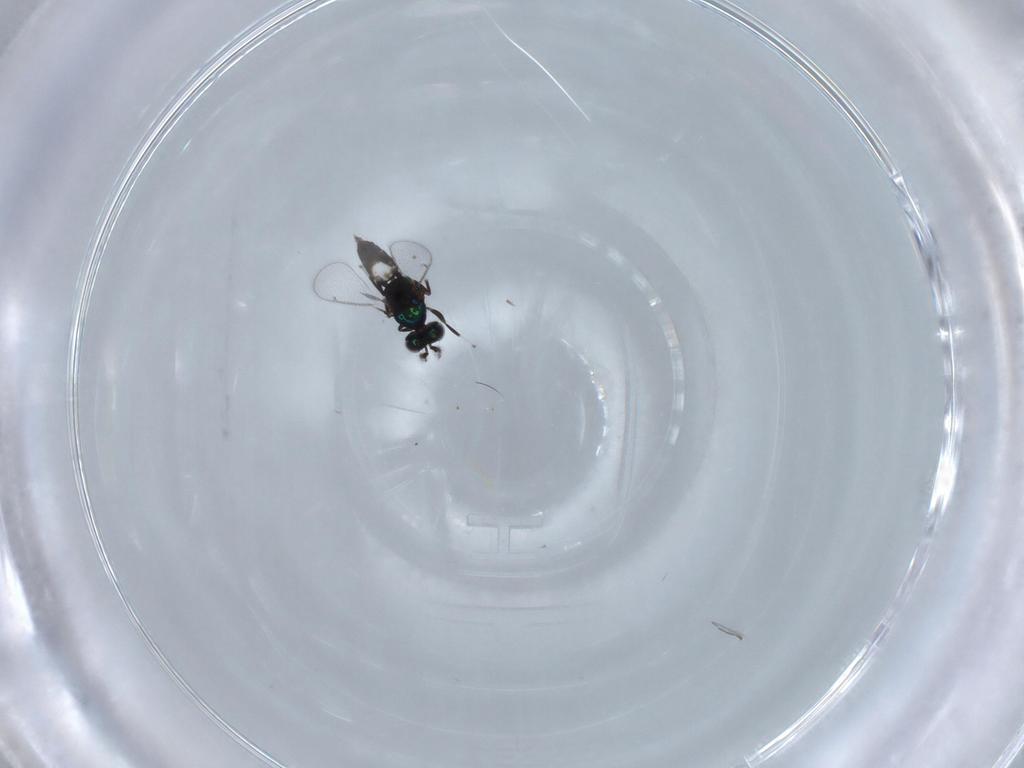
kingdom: Animalia
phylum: Arthropoda
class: Insecta
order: Hymenoptera
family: Eulophidae
